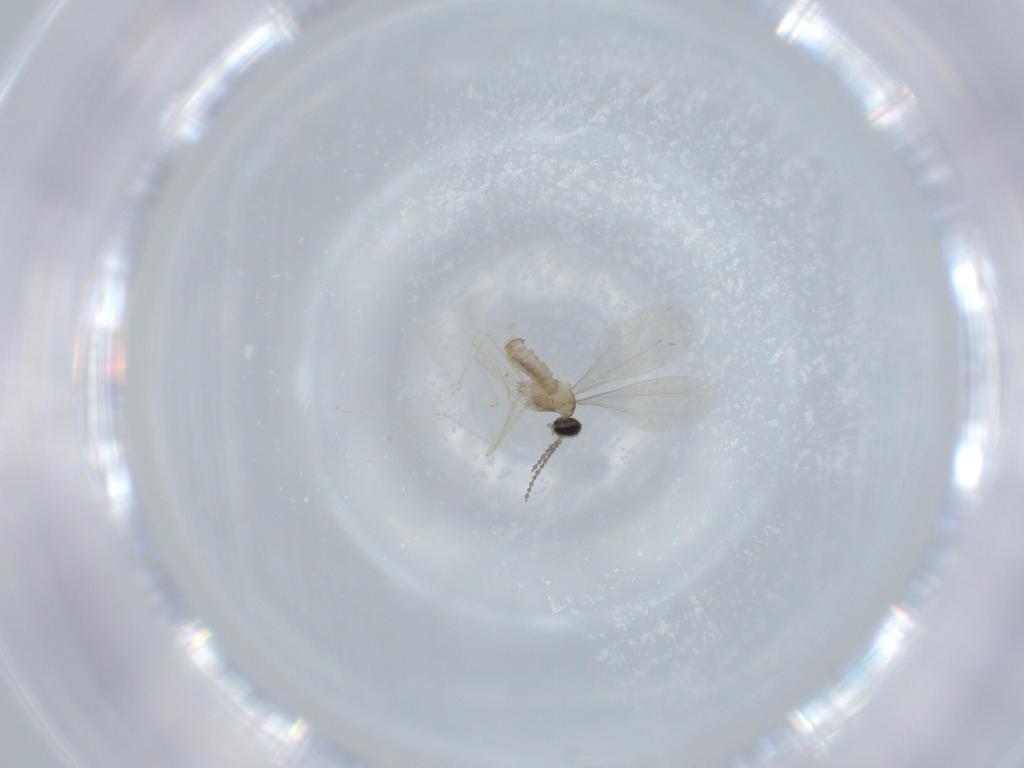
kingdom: Animalia
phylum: Arthropoda
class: Insecta
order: Diptera
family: Cecidomyiidae
